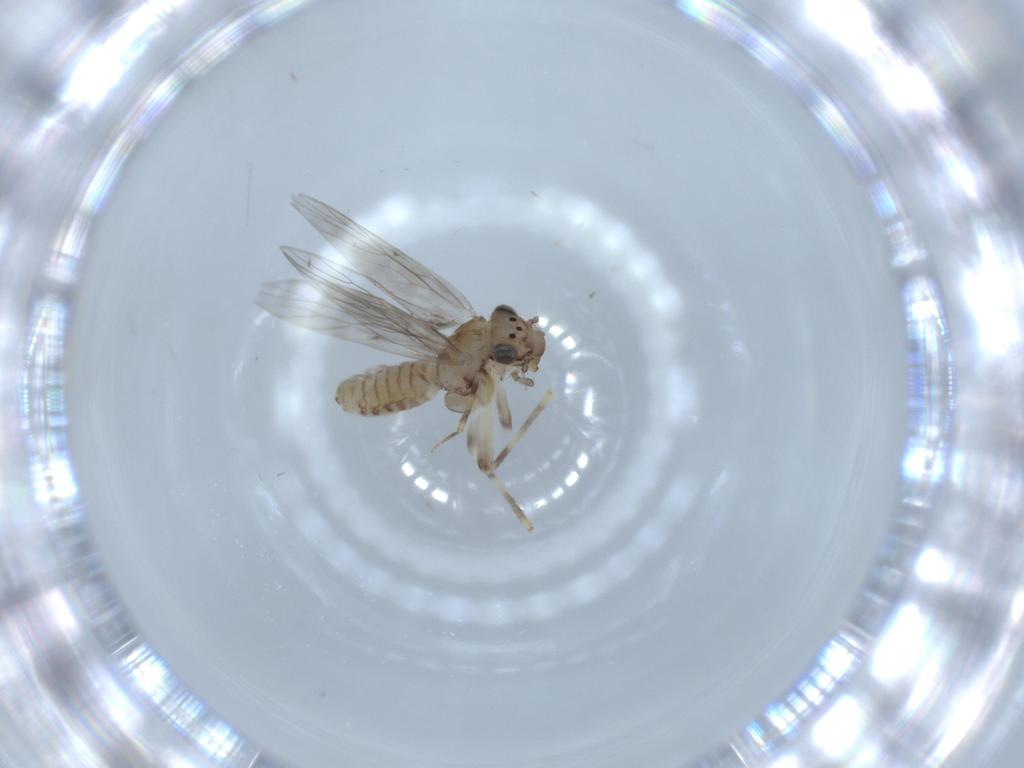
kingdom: Animalia
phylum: Arthropoda
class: Insecta
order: Psocodea
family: Lepidopsocidae
